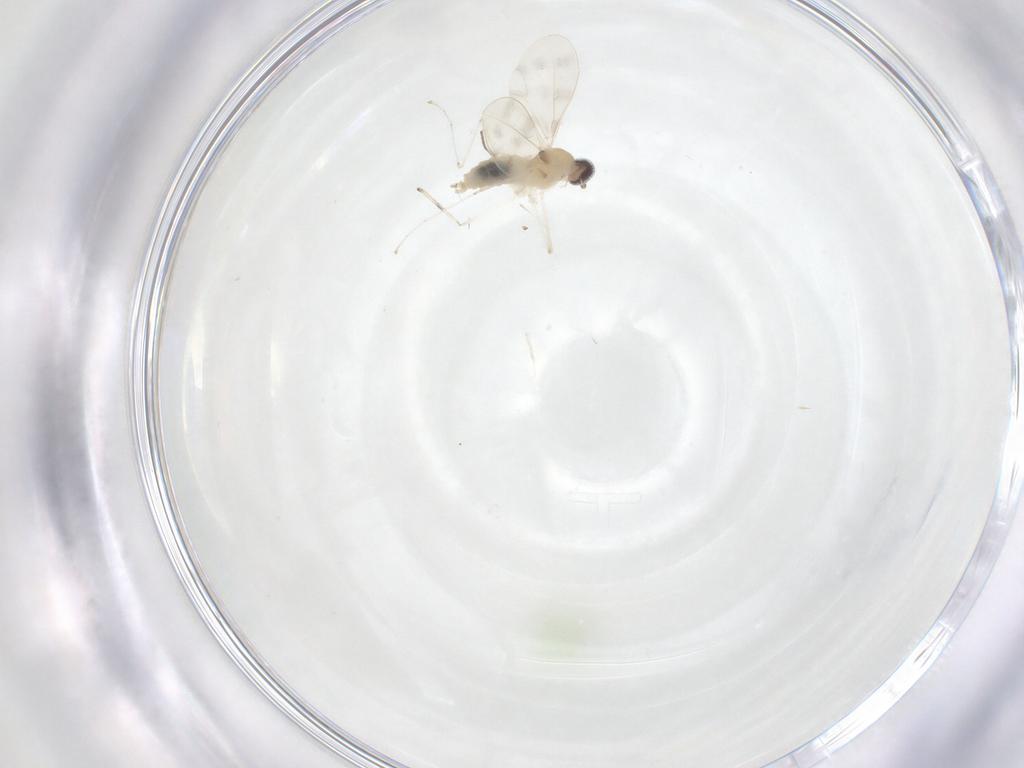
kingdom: Animalia
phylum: Arthropoda
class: Insecta
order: Diptera
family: Cecidomyiidae
